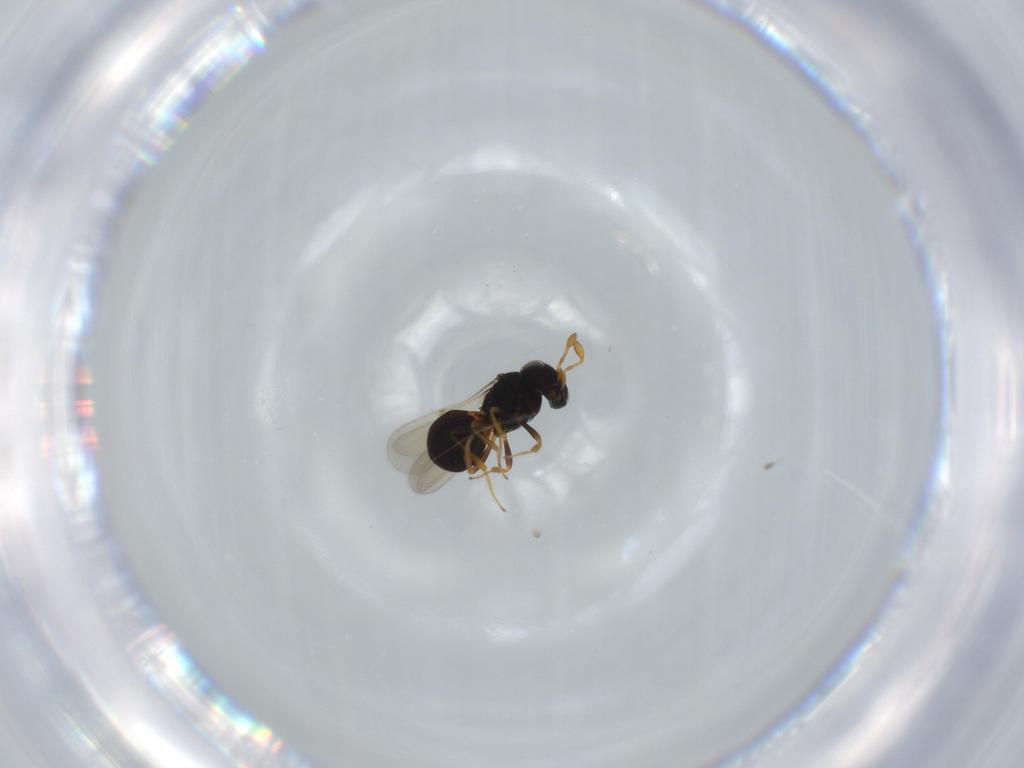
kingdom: Animalia
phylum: Arthropoda
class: Insecta
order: Hymenoptera
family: Scelionidae
